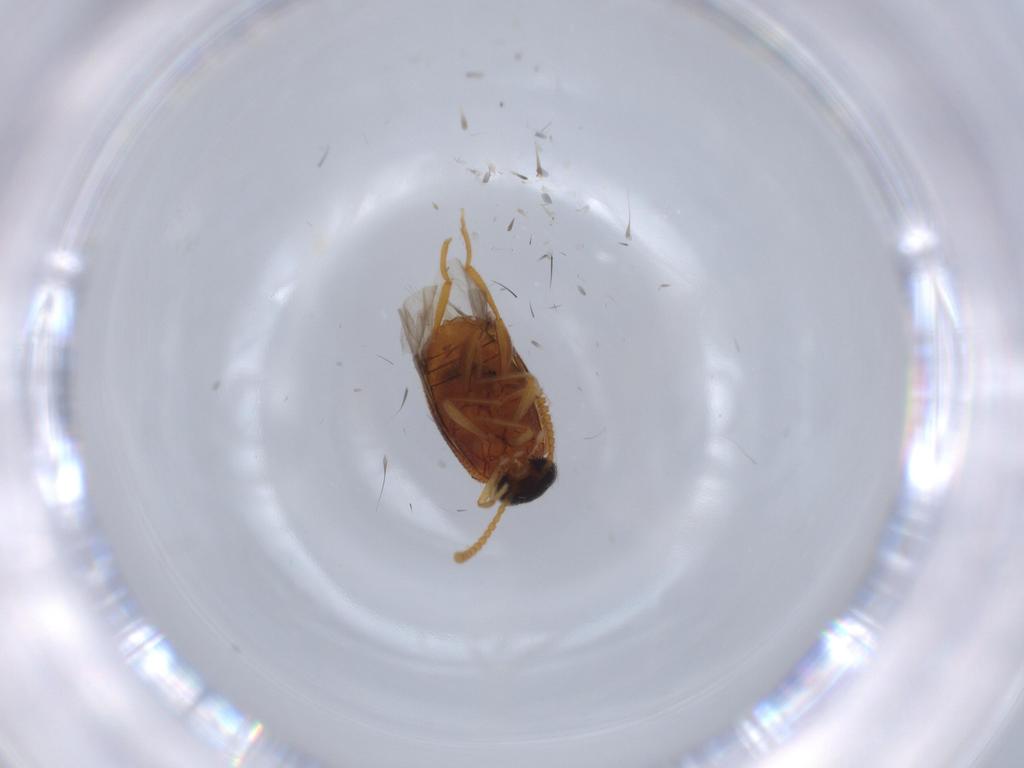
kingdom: Animalia
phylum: Arthropoda
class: Insecta
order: Coleoptera
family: Aderidae
